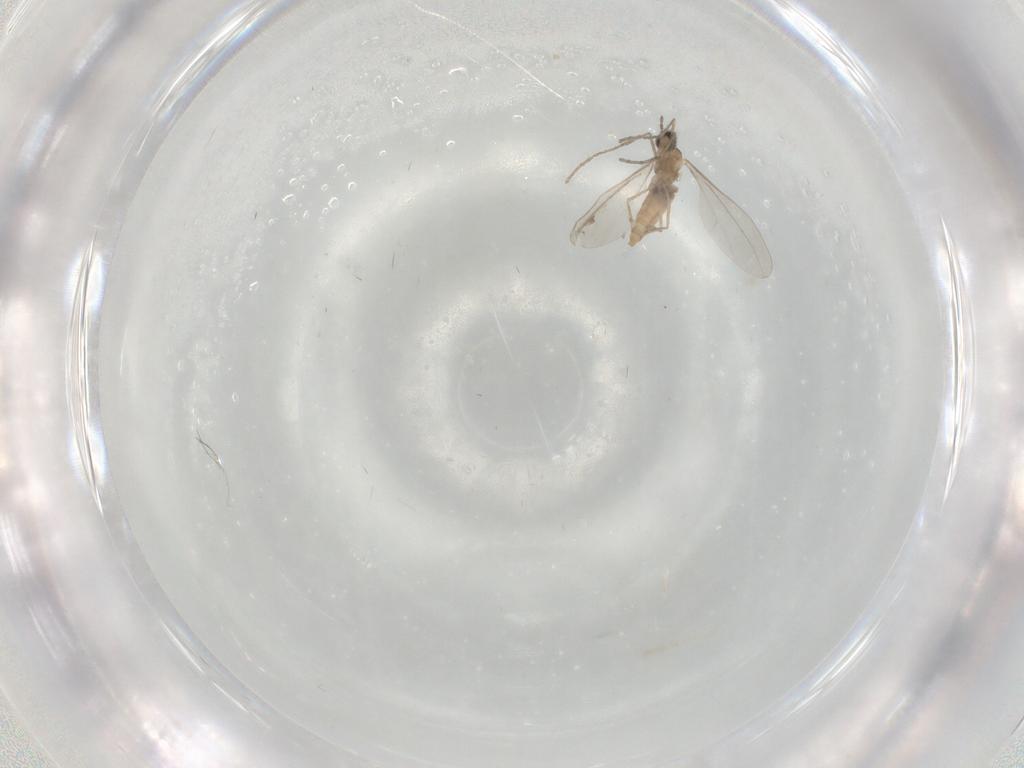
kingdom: Animalia
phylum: Arthropoda
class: Insecta
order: Diptera
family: Cecidomyiidae
